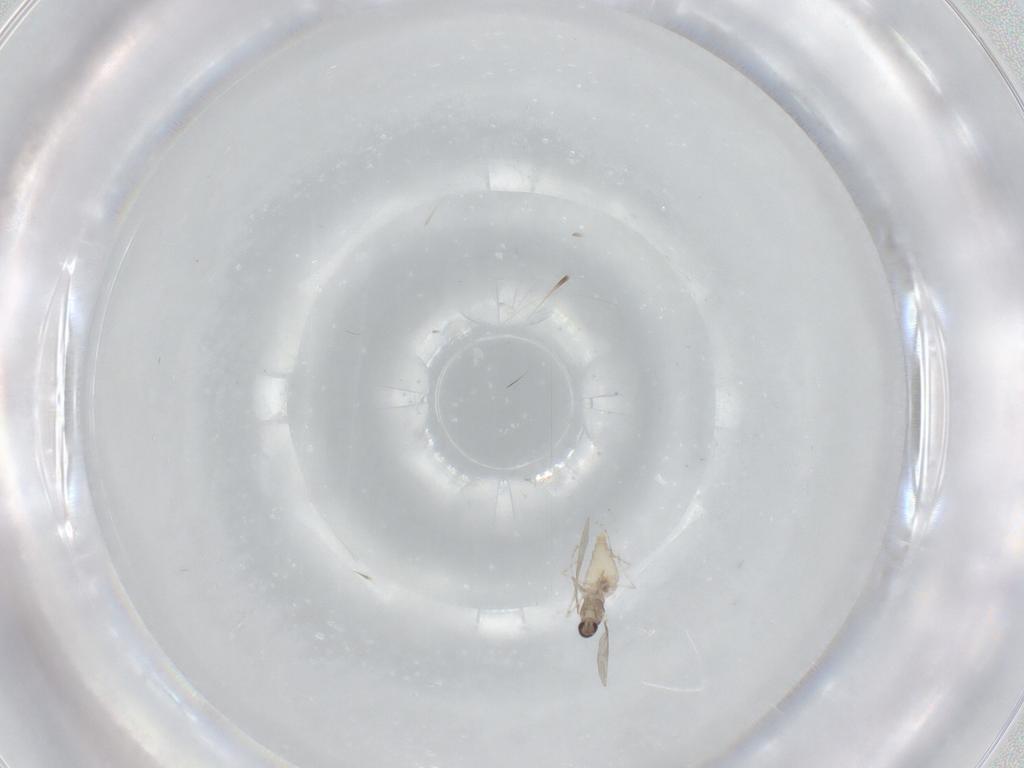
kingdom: Animalia
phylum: Arthropoda
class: Insecta
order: Diptera
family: Cecidomyiidae
